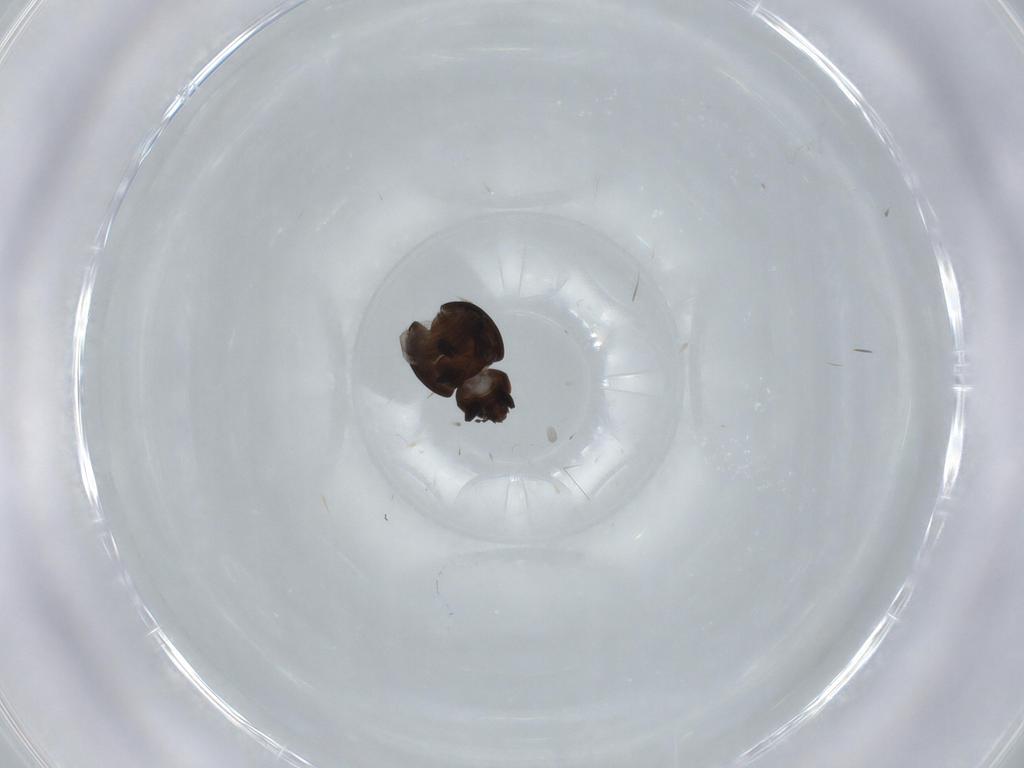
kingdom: Animalia
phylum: Arthropoda
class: Insecta
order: Coleoptera
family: Coccinellidae
